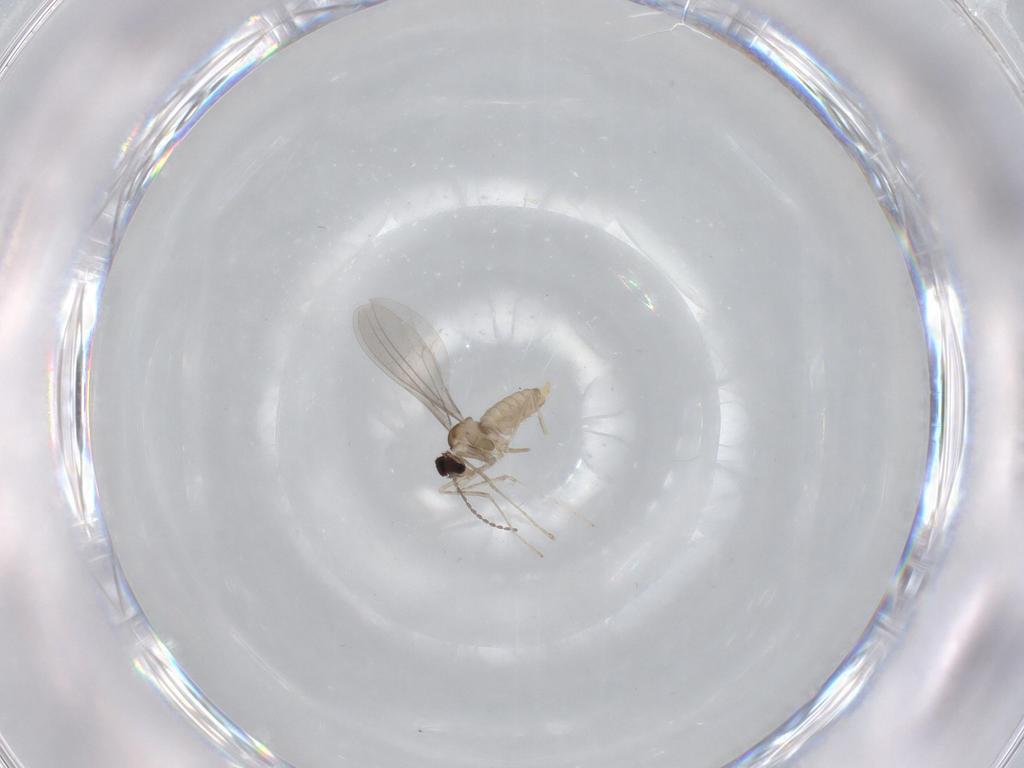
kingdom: Animalia
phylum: Arthropoda
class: Insecta
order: Diptera
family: Cecidomyiidae
